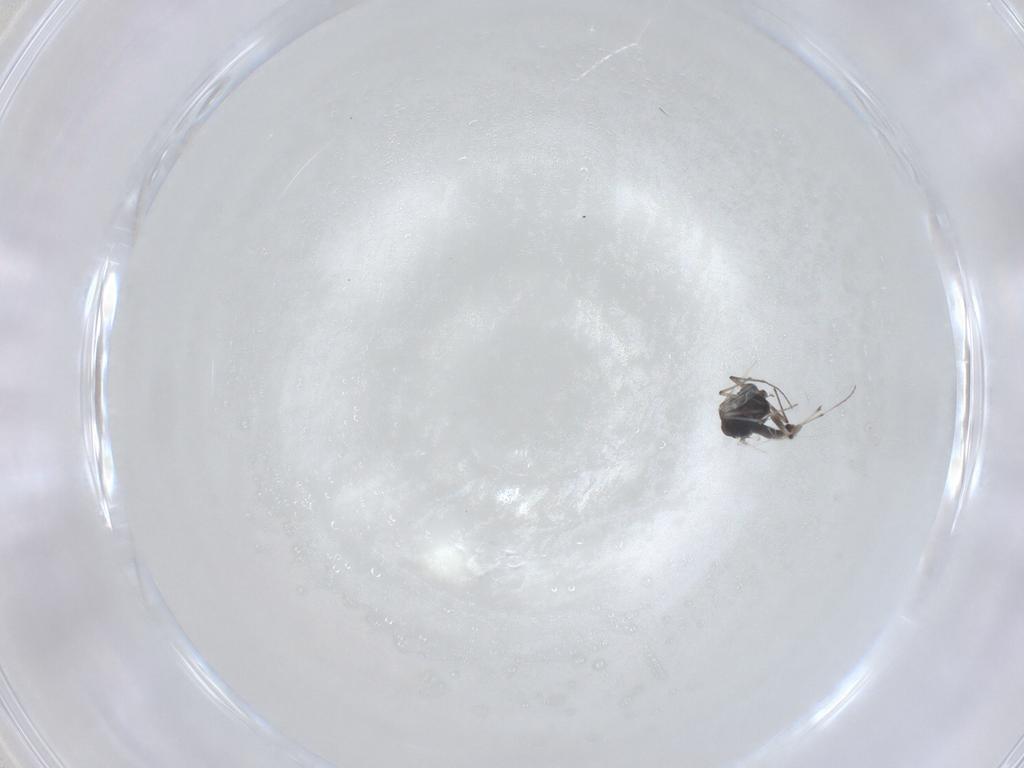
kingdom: Animalia
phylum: Arthropoda
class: Insecta
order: Diptera
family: Chironomidae
